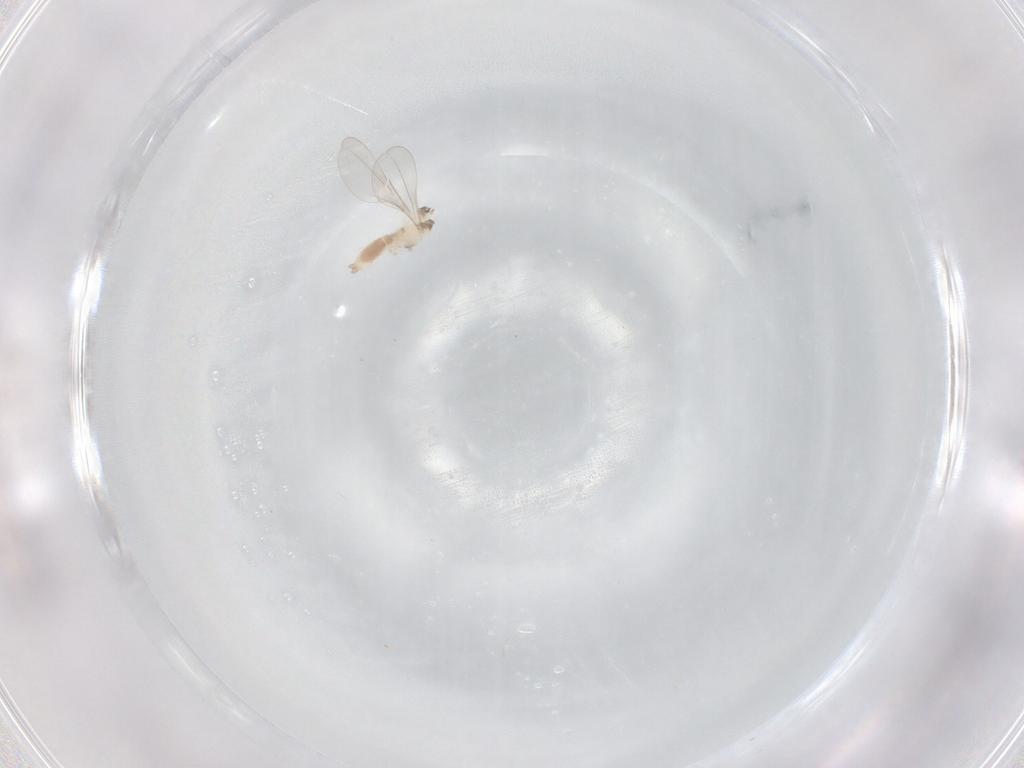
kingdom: Animalia
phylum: Arthropoda
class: Insecta
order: Diptera
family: Cecidomyiidae
